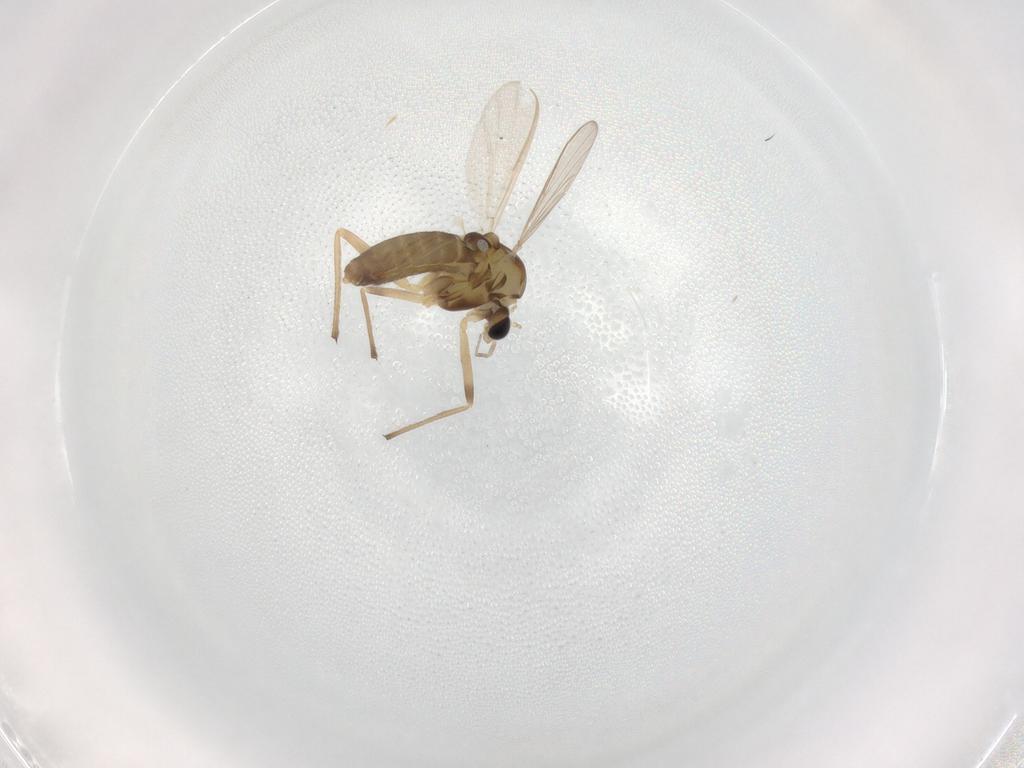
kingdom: Animalia
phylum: Arthropoda
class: Insecta
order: Diptera
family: Chironomidae
